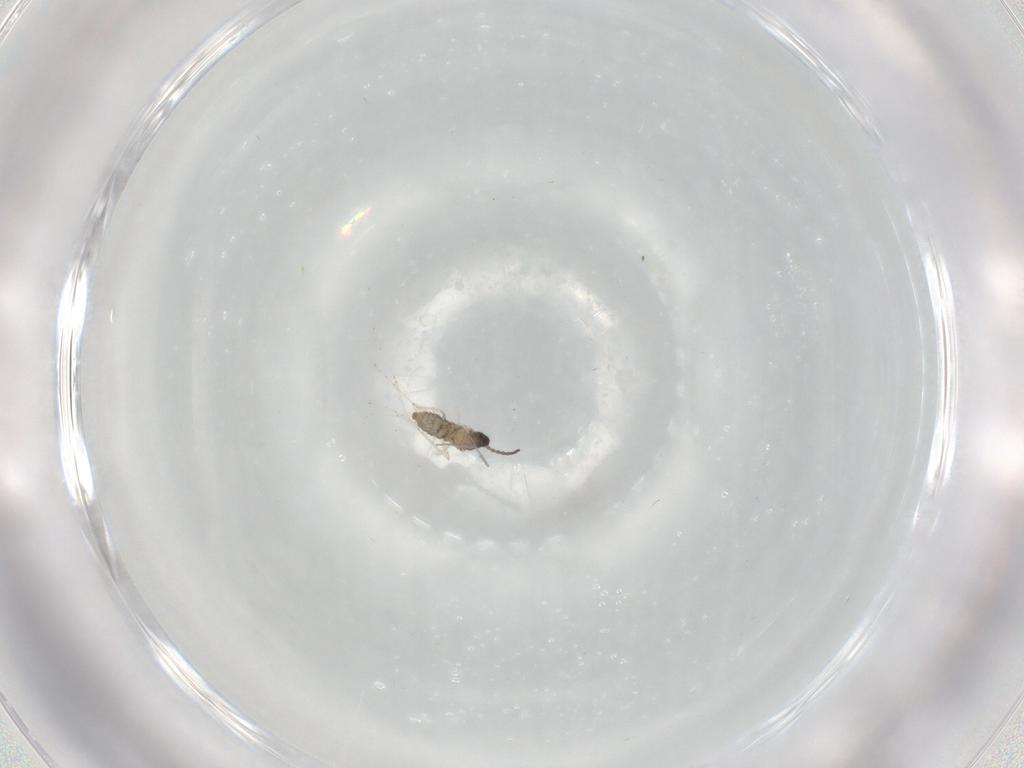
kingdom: Animalia
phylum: Arthropoda
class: Insecta
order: Diptera
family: Cecidomyiidae
